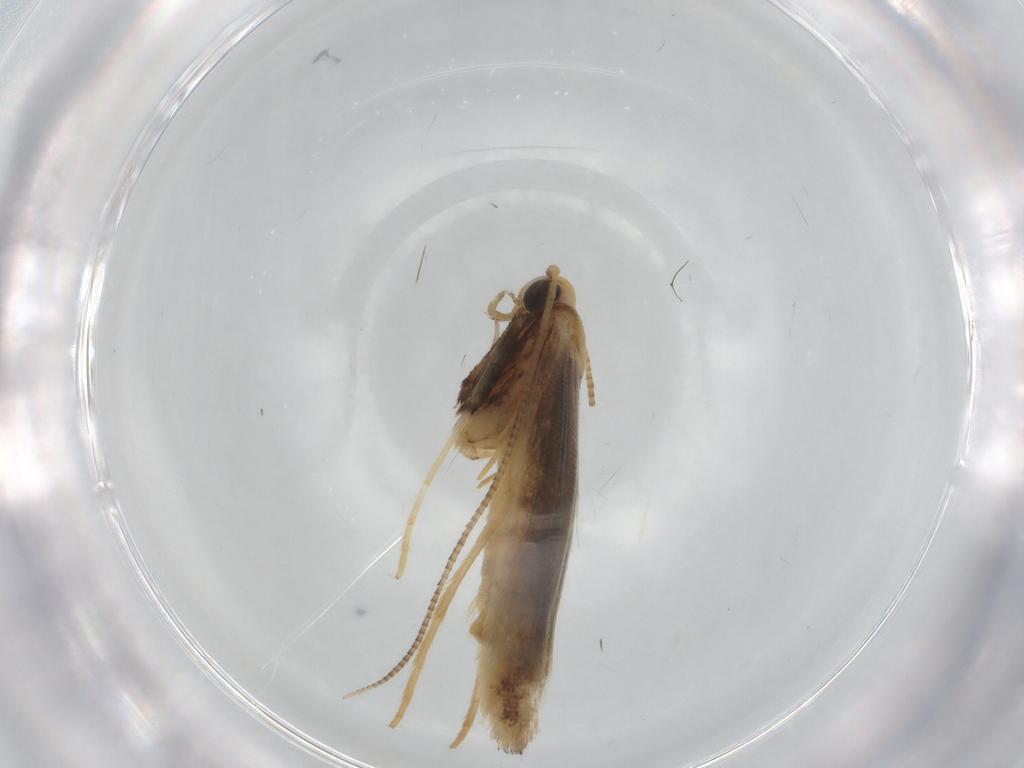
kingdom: Animalia
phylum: Arthropoda
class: Insecta
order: Lepidoptera
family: Gracillariidae
